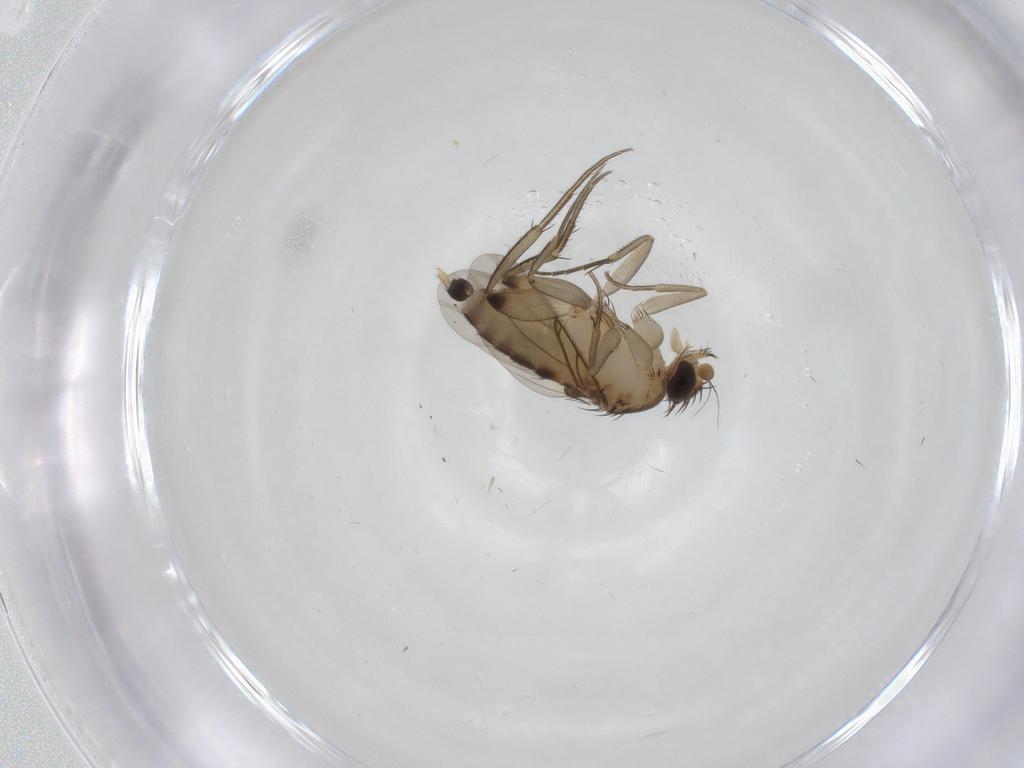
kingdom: Animalia
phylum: Arthropoda
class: Insecta
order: Diptera
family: Phoridae
